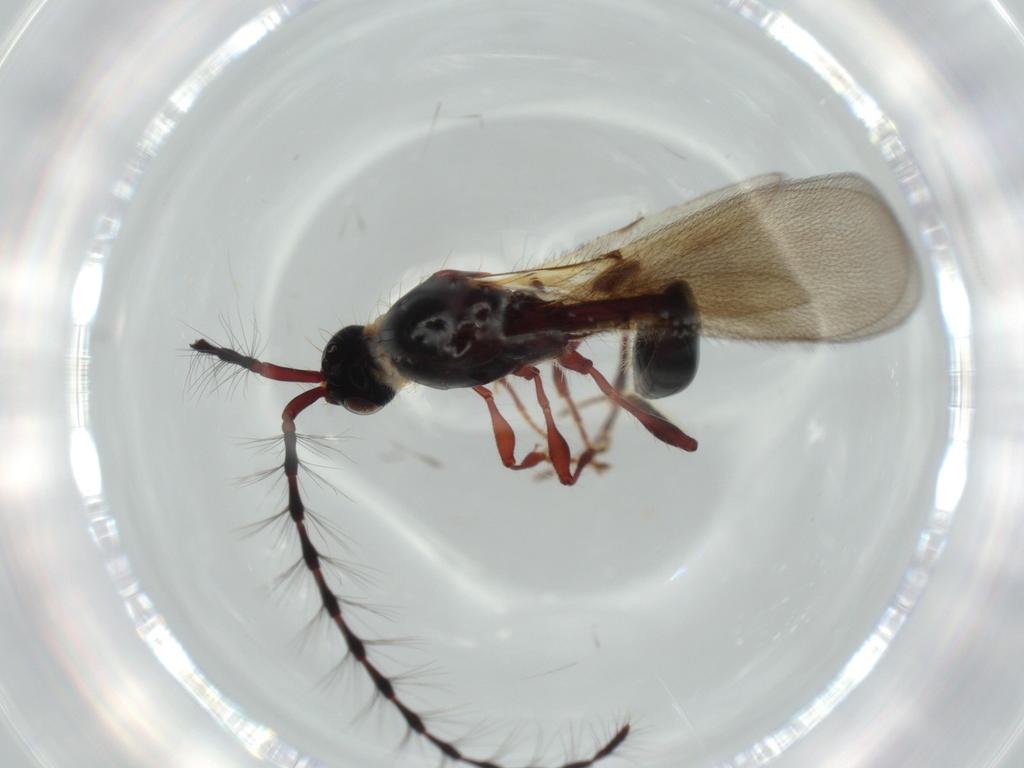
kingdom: Animalia
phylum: Arthropoda
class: Insecta
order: Hymenoptera
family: Diapriidae
